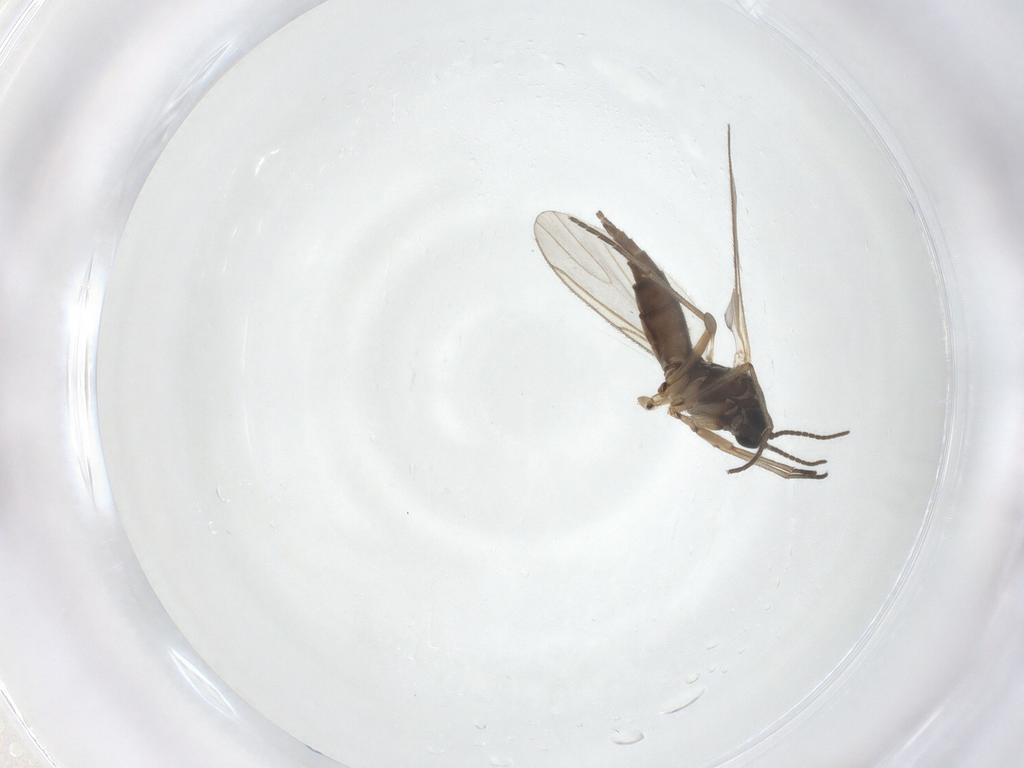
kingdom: Animalia
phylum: Arthropoda
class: Insecta
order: Diptera
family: Sciaridae
